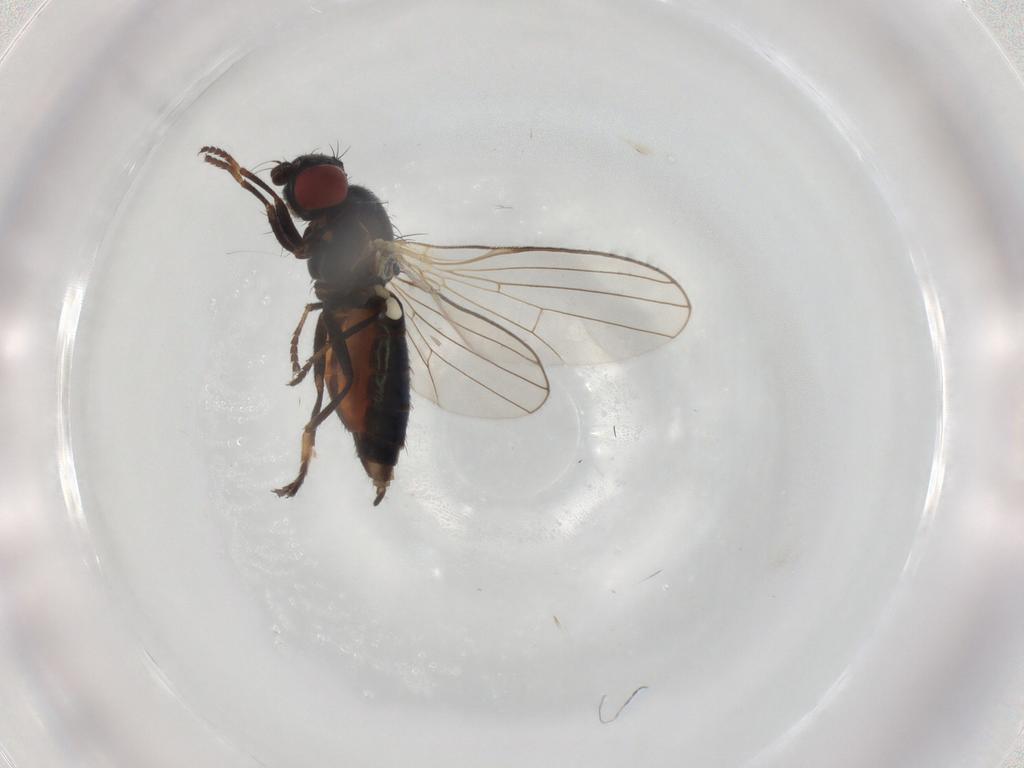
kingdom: Animalia
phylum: Arthropoda
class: Insecta
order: Diptera
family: Chamaemyiidae
